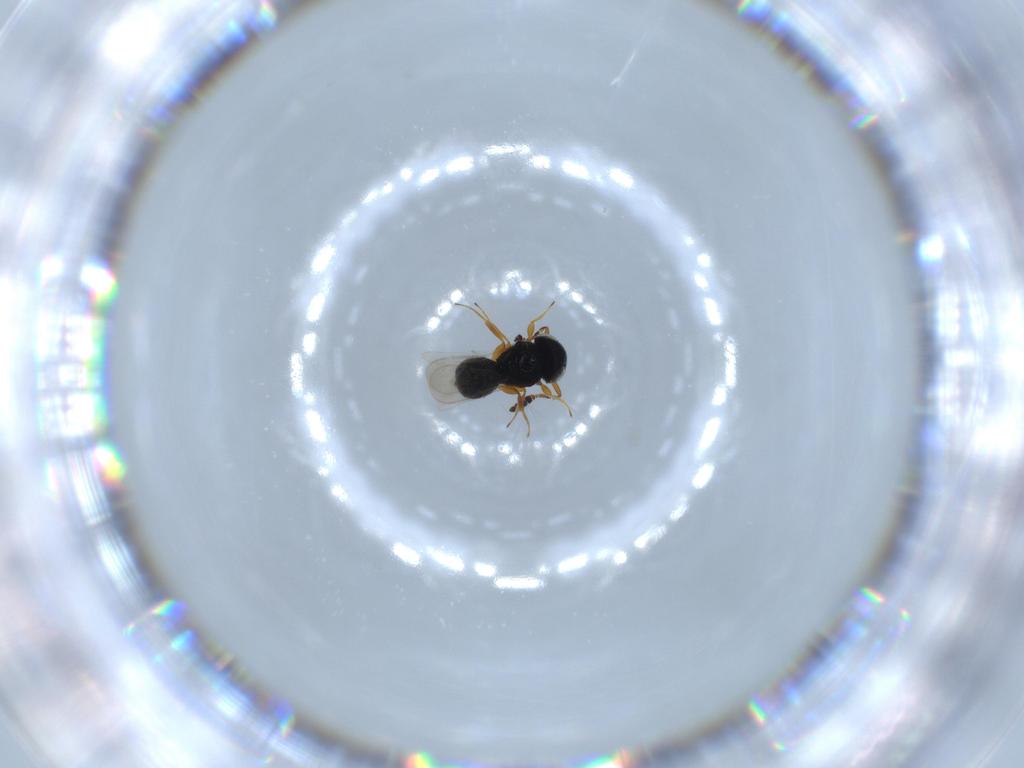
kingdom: Animalia
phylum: Arthropoda
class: Insecta
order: Hymenoptera
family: Scelionidae
